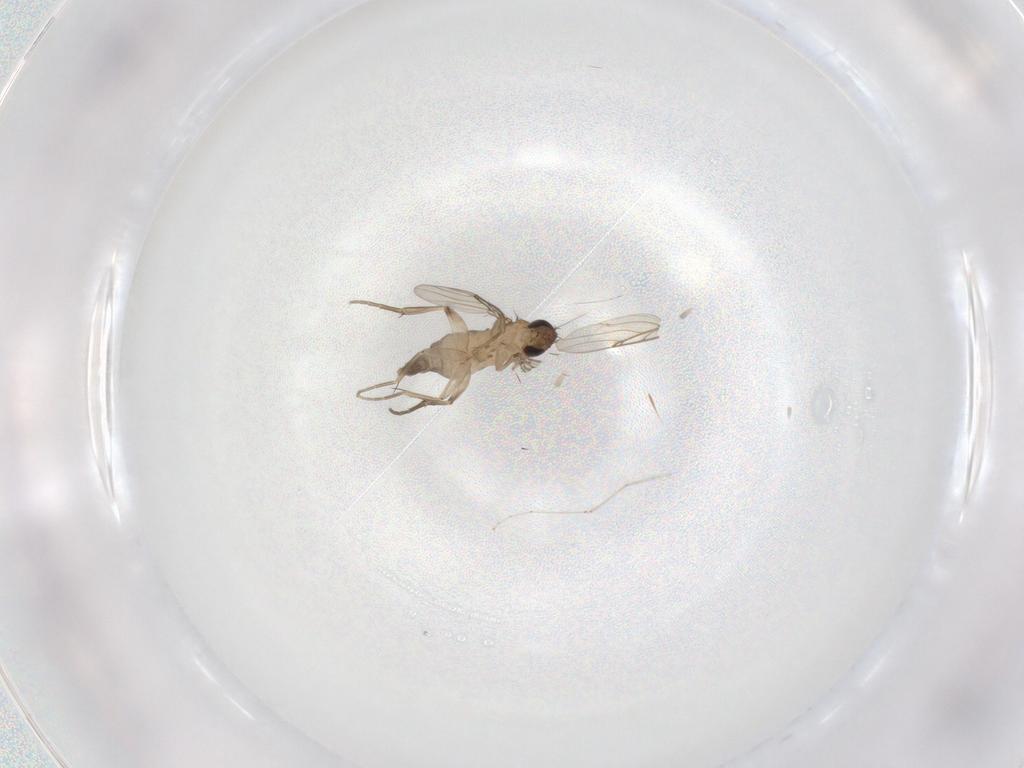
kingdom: Animalia
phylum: Arthropoda
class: Insecta
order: Diptera
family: Phoridae
